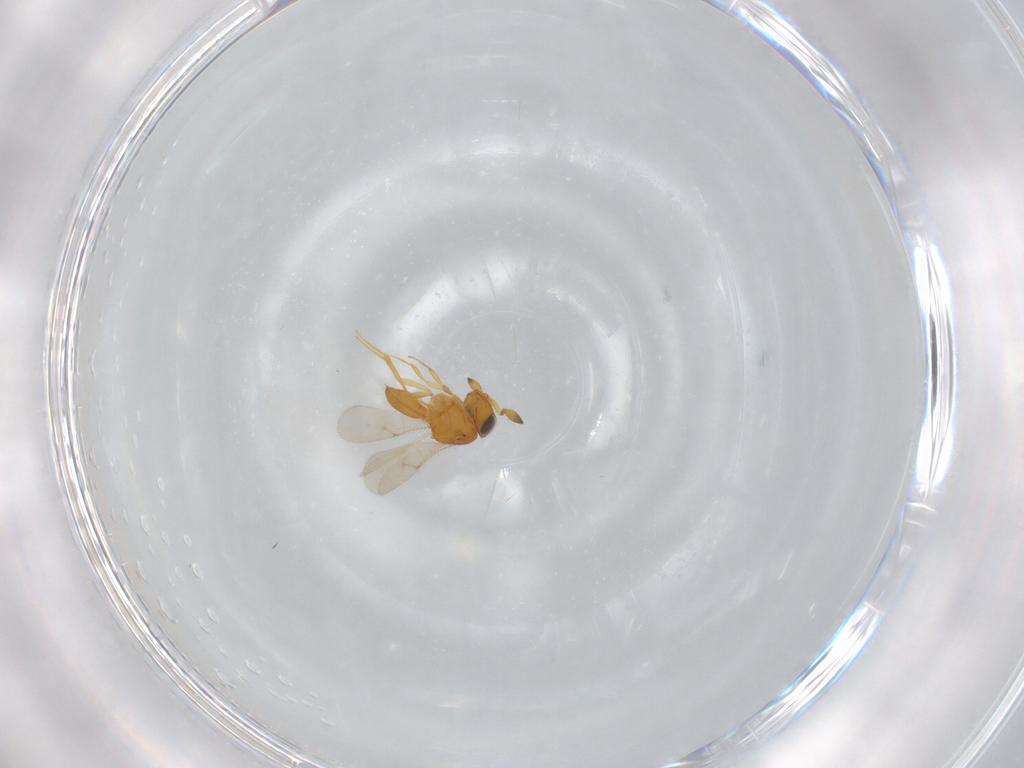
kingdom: Animalia
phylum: Arthropoda
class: Insecta
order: Hymenoptera
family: Scelionidae
